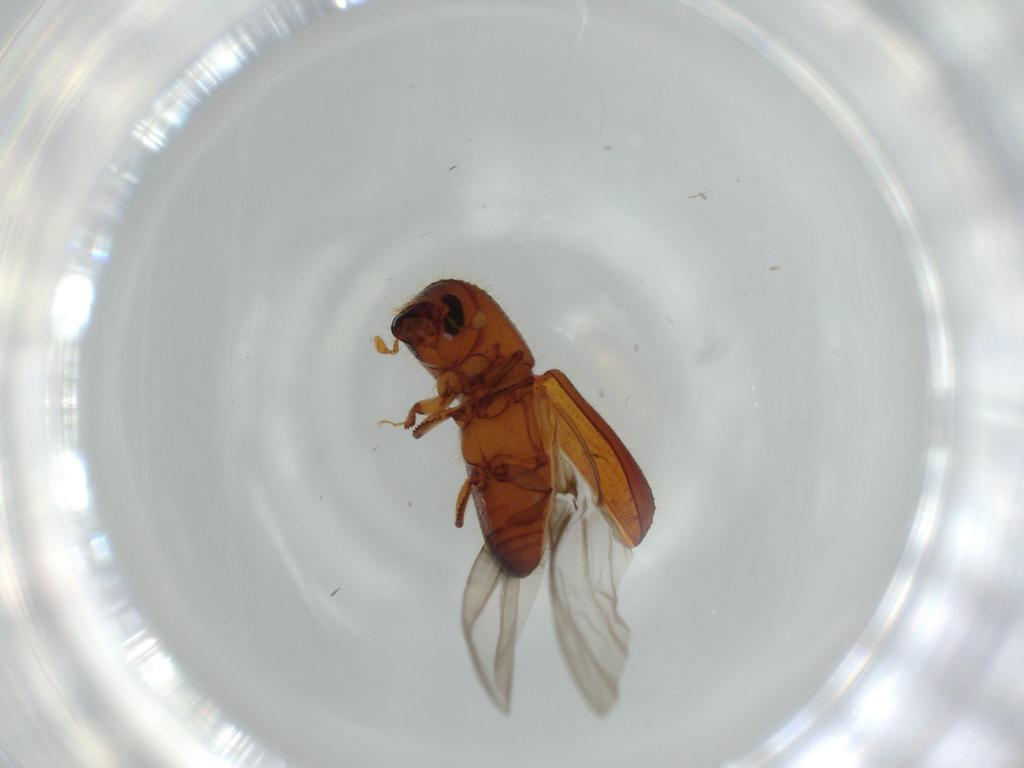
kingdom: Animalia
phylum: Arthropoda
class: Insecta
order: Coleoptera
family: Curculionidae
